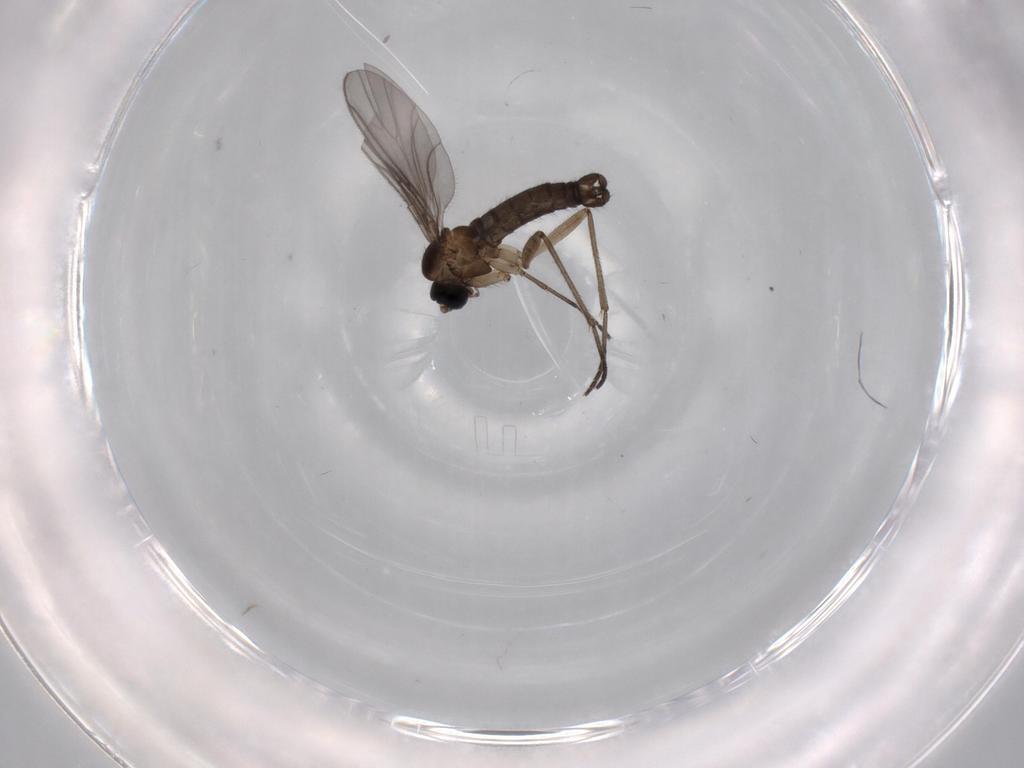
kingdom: Animalia
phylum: Arthropoda
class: Insecta
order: Diptera
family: Sciaridae
